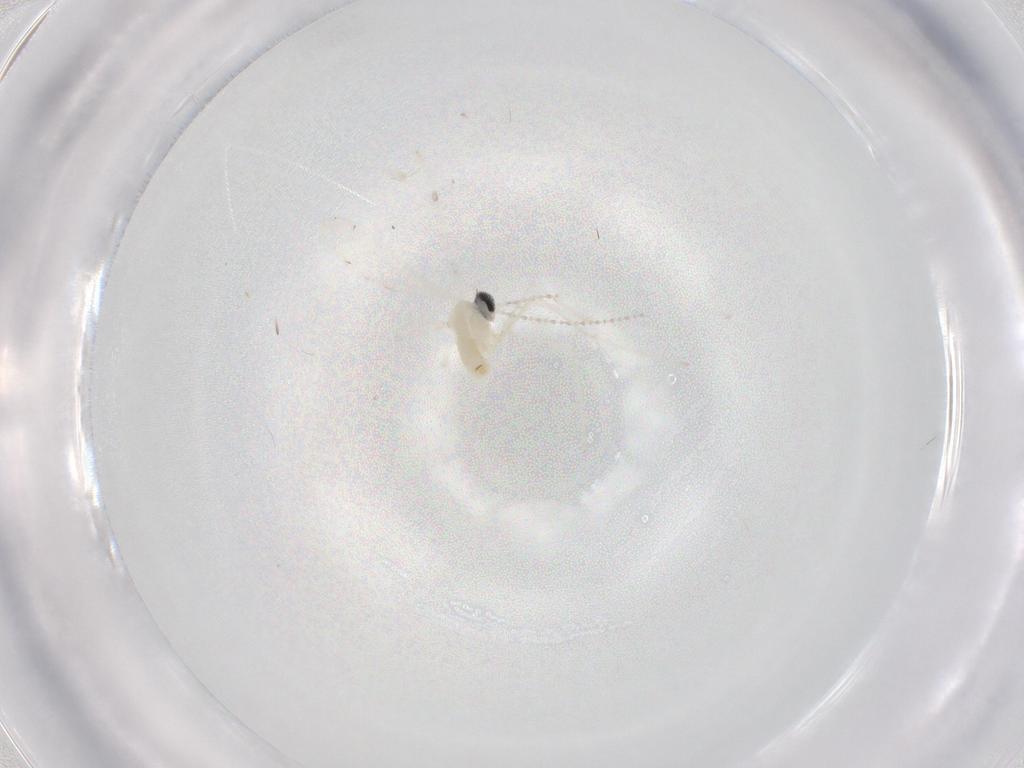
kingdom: Animalia
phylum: Arthropoda
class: Insecta
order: Diptera
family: Cecidomyiidae
